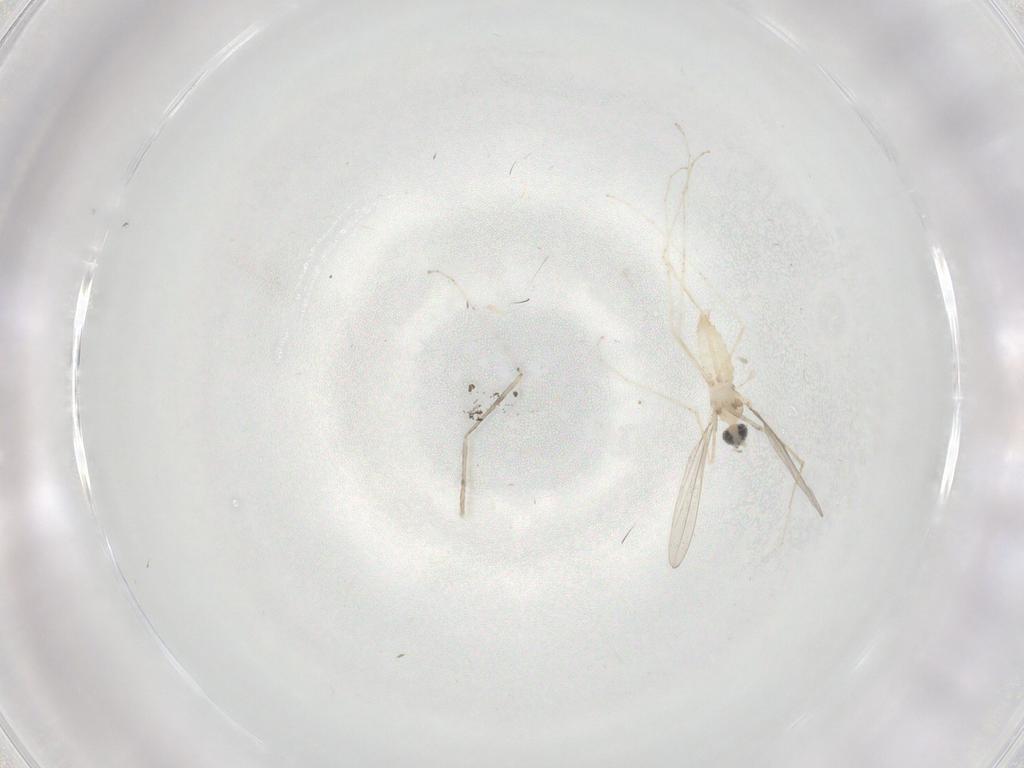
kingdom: Animalia
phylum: Arthropoda
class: Insecta
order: Diptera
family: Cecidomyiidae
